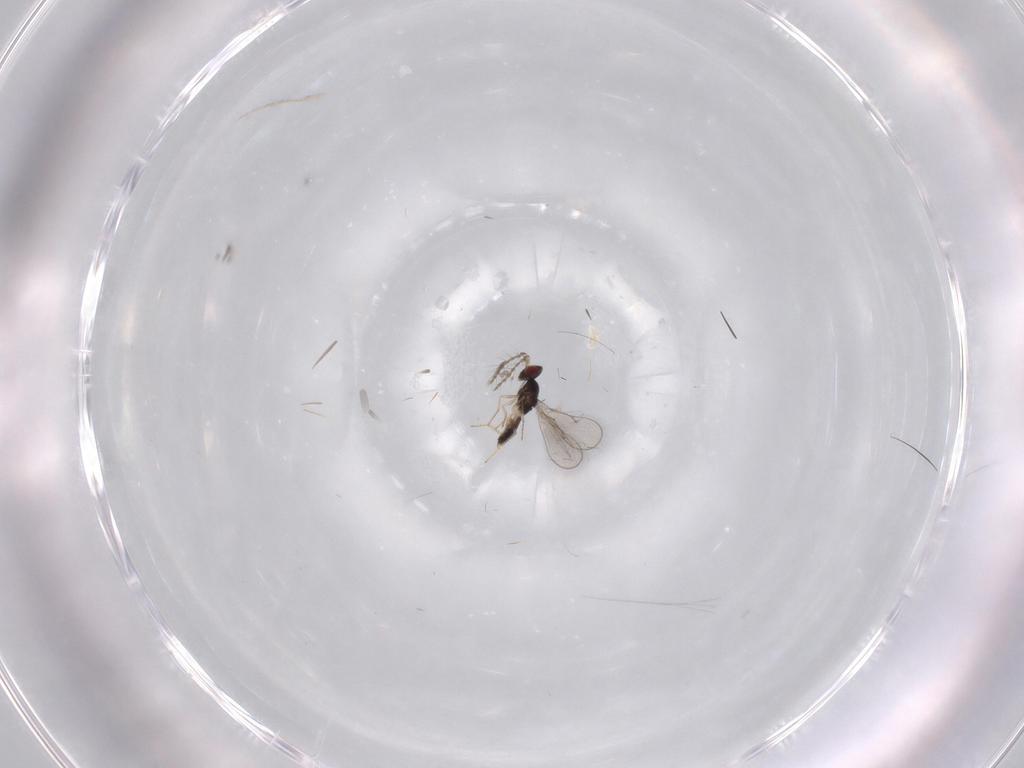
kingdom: Animalia
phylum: Arthropoda
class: Insecta
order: Hymenoptera
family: Eulophidae
